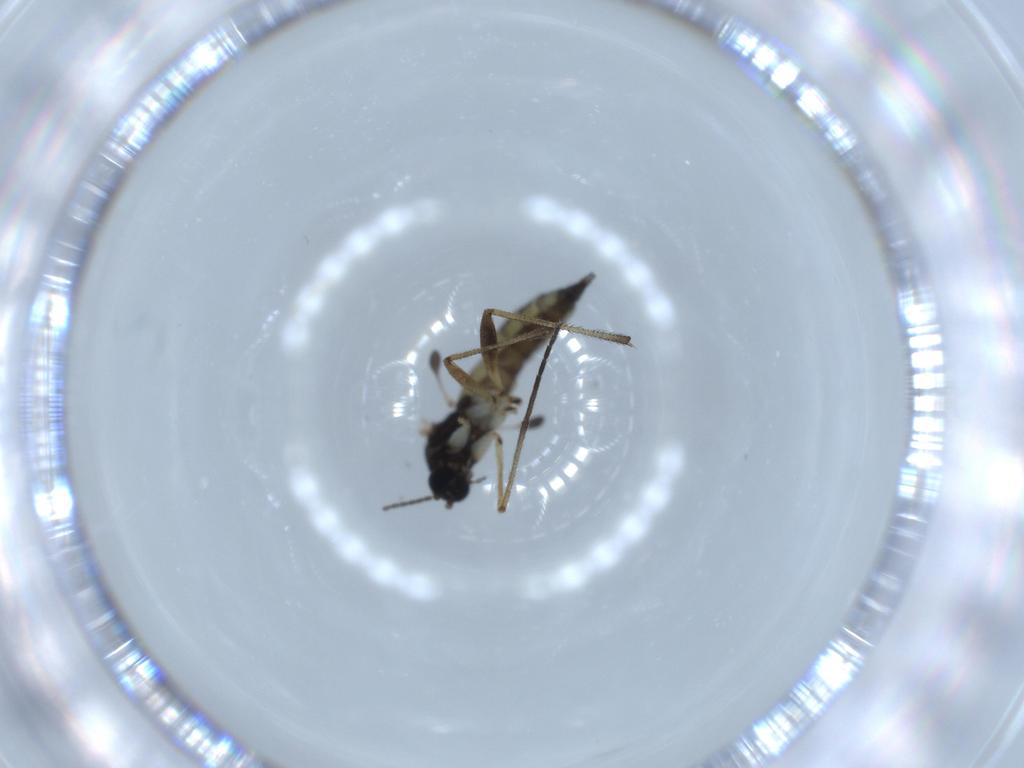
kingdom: Animalia
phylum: Arthropoda
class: Insecta
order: Diptera
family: Sciaridae
